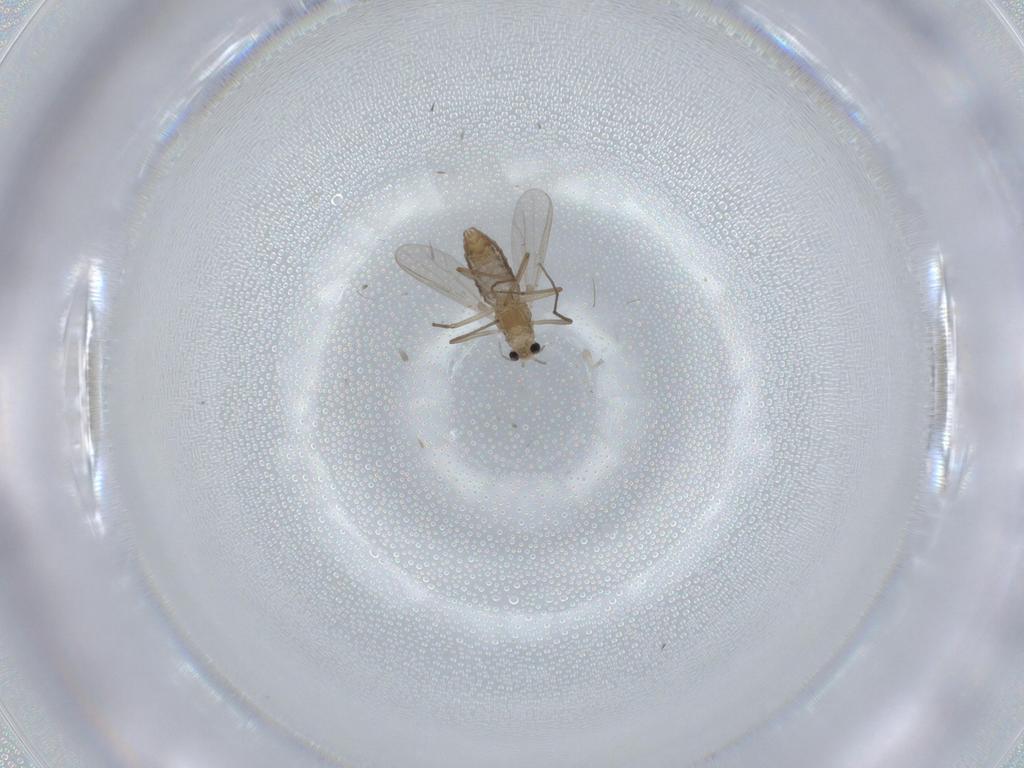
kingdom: Animalia
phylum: Arthropoda
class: Insecta
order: Diptera
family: Chironomidae
